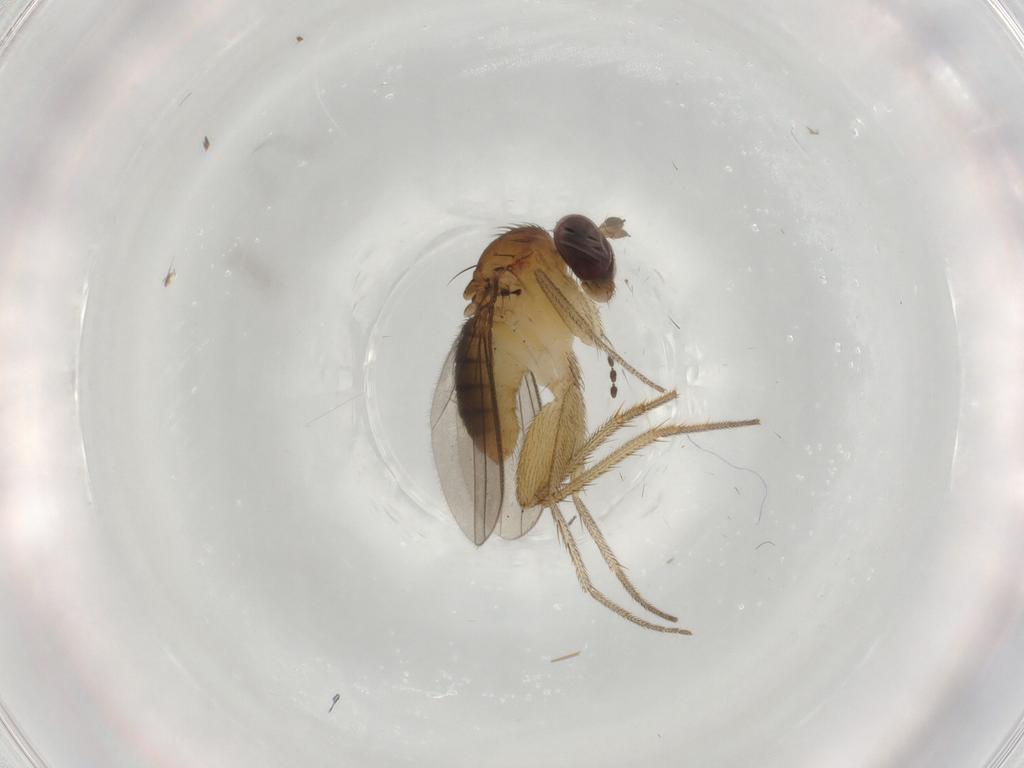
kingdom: Animalia
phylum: Arthropoda
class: Insecta
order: Diptera
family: Dolichopodidae
